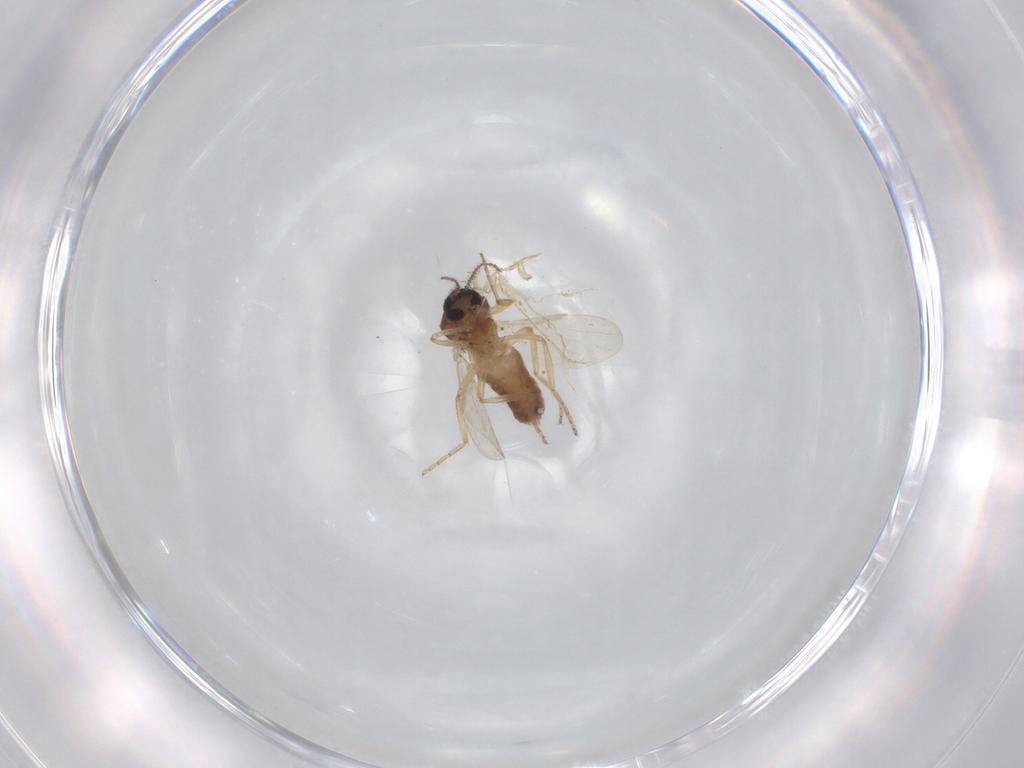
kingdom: Animalia
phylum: Arthropoda
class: Insecta
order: Diptera
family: Ceratopogonidae
